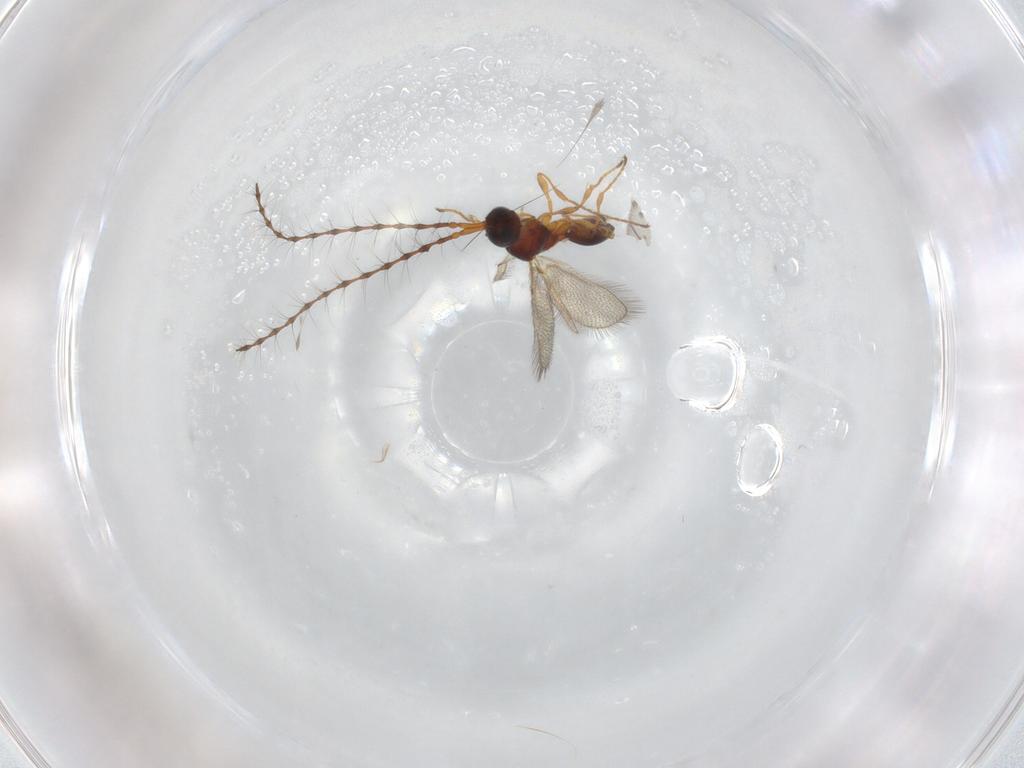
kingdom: Animalia
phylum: Arthropoda
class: Insecta
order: Hymenoptera
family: Diapriidae
